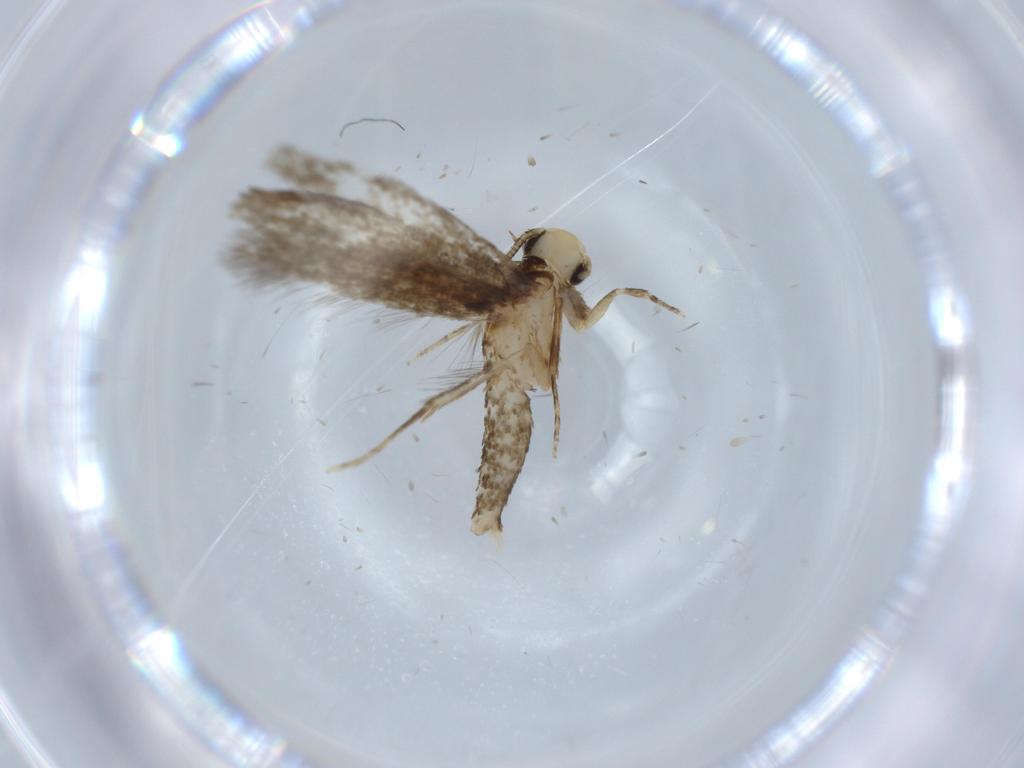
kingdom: Animalia
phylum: Arthropoda
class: Insecta
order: Lepidoptera
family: Tineidae
